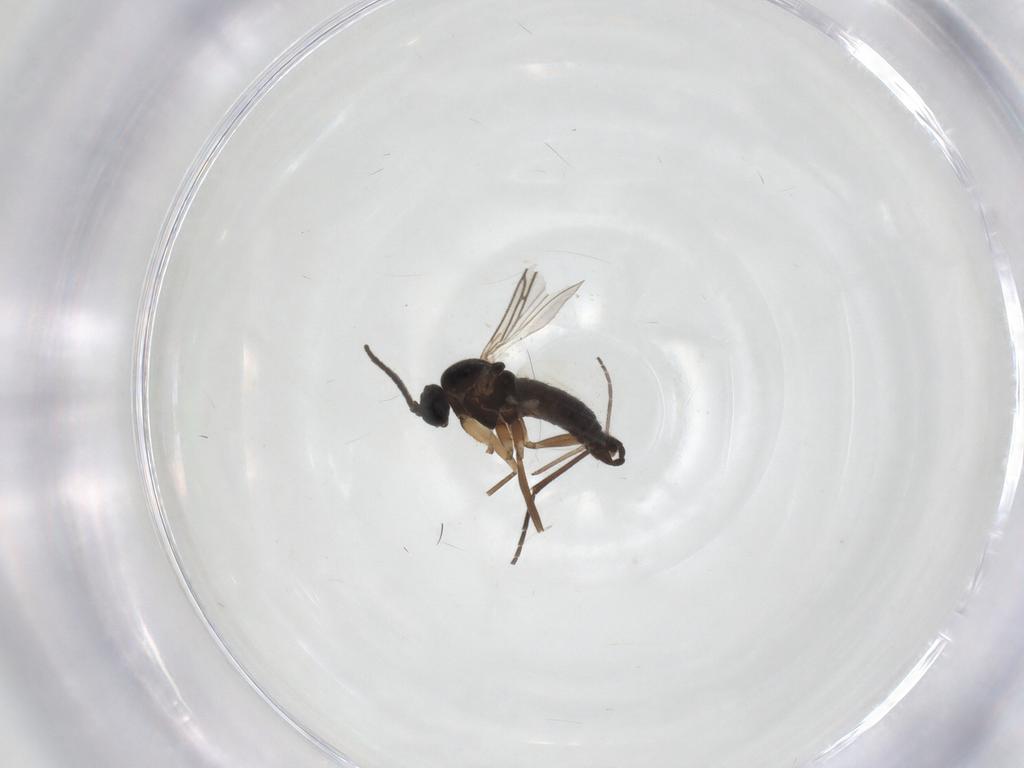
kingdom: Animalia
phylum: Arthropoda
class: Insecta
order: Diptera
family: Sciaridae
